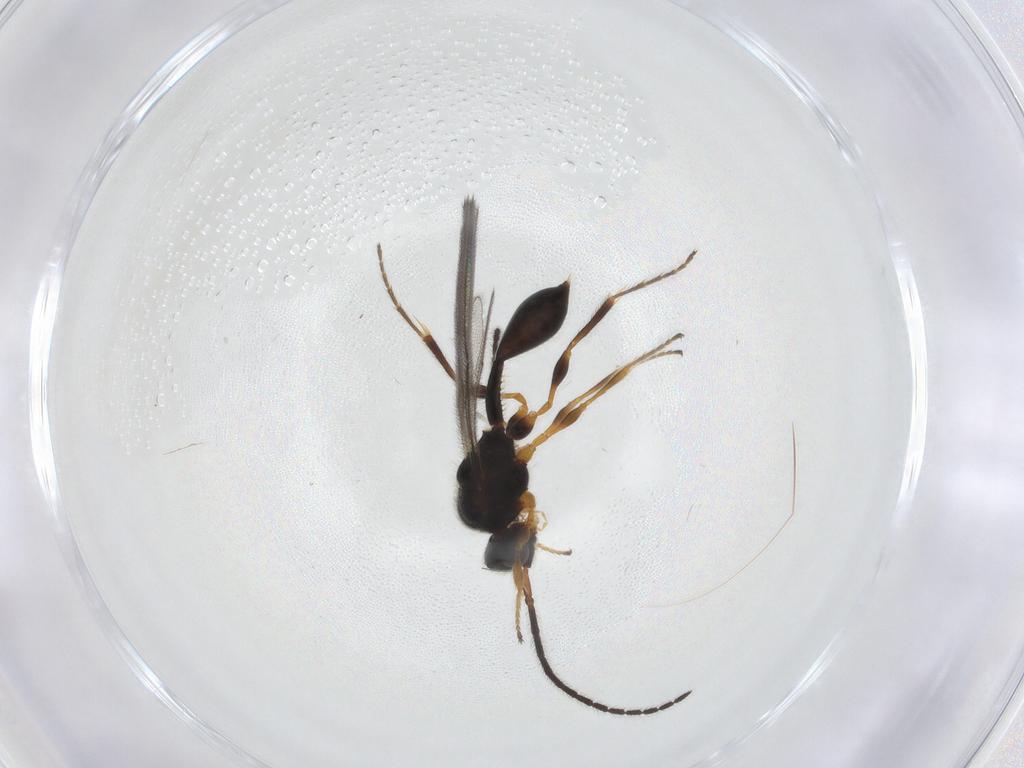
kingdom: Animalia
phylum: Arthropoda
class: Insecta
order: Hymenoptera
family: Diapriidae
